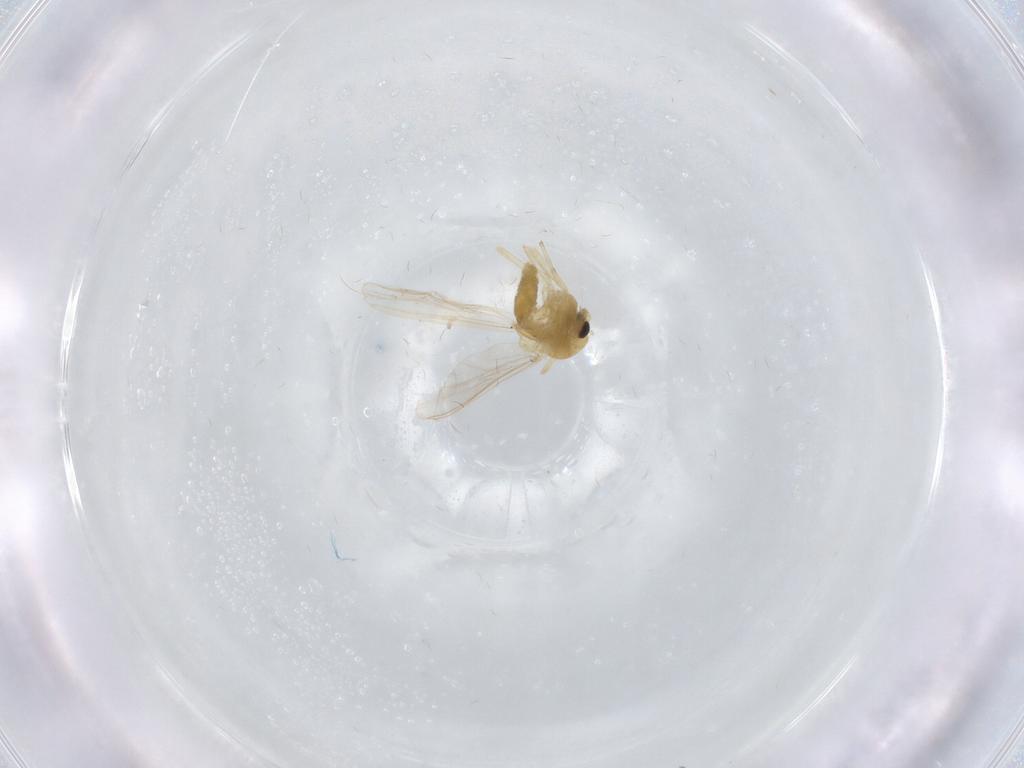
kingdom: Animalia
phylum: Arthropoda
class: Insecta
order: Diptera
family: Chironomidae
